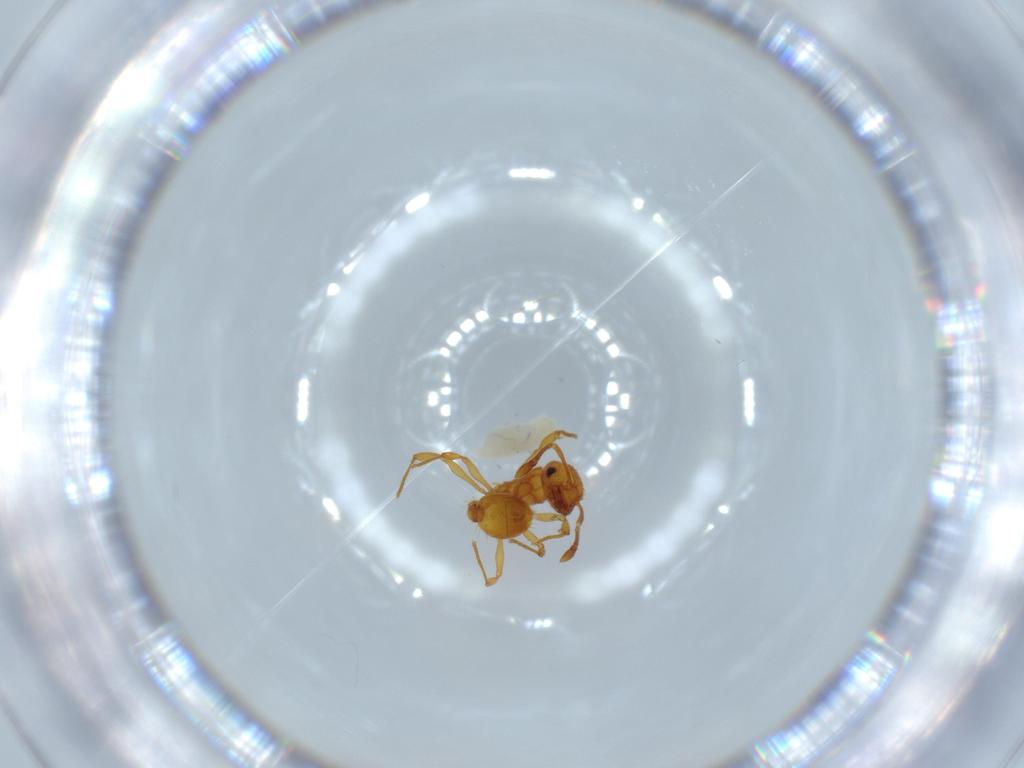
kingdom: Animalia
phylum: Arthropoda
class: Insecta
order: Hymenoptera
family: Formicidae
